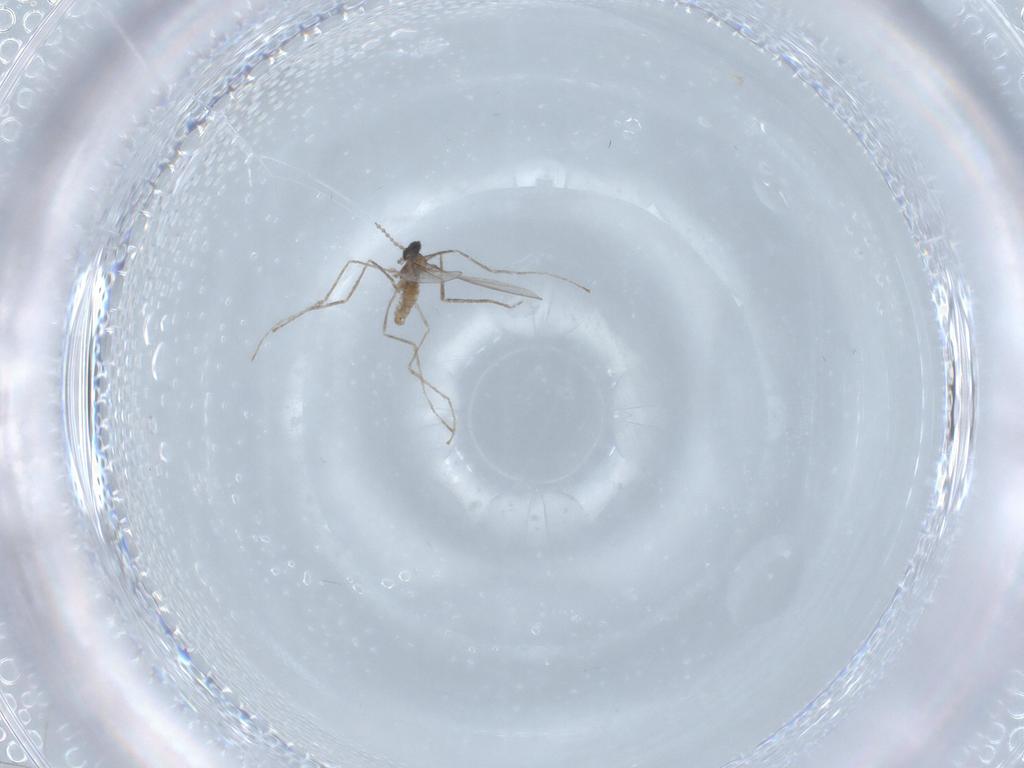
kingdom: Animalia
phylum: Arthropoda
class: Insecta
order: Diptera
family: Cecidomyiidae
